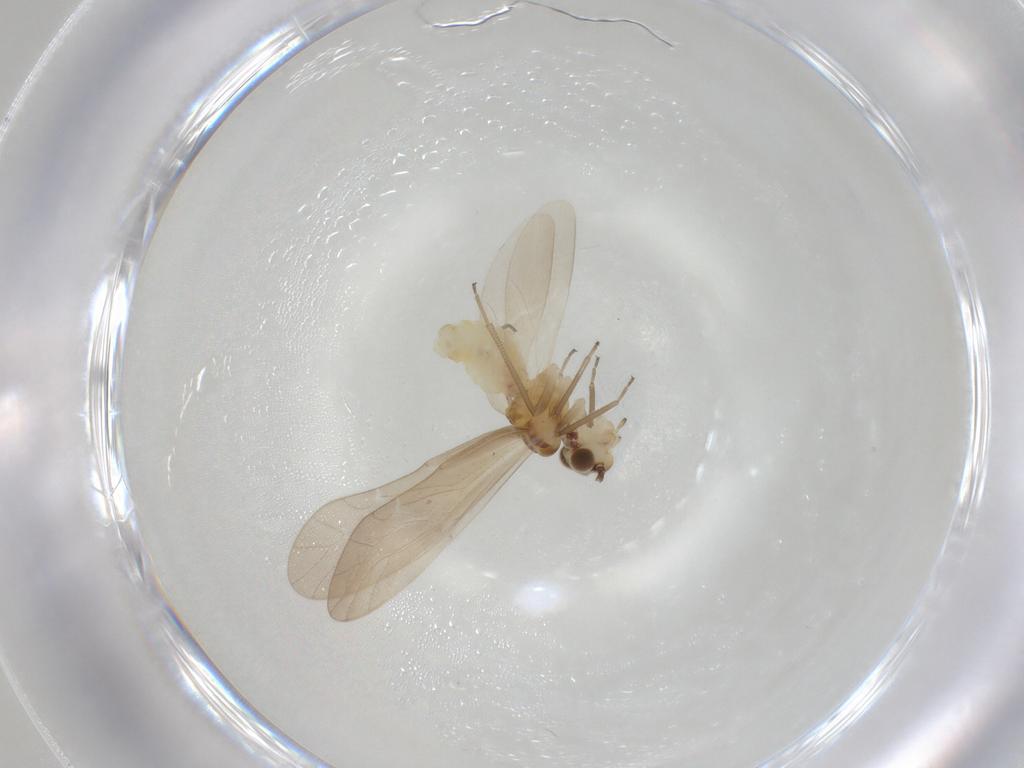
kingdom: Animalia
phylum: Arthropoda
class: Insecta
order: Psocodea
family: Caeciliusidae
